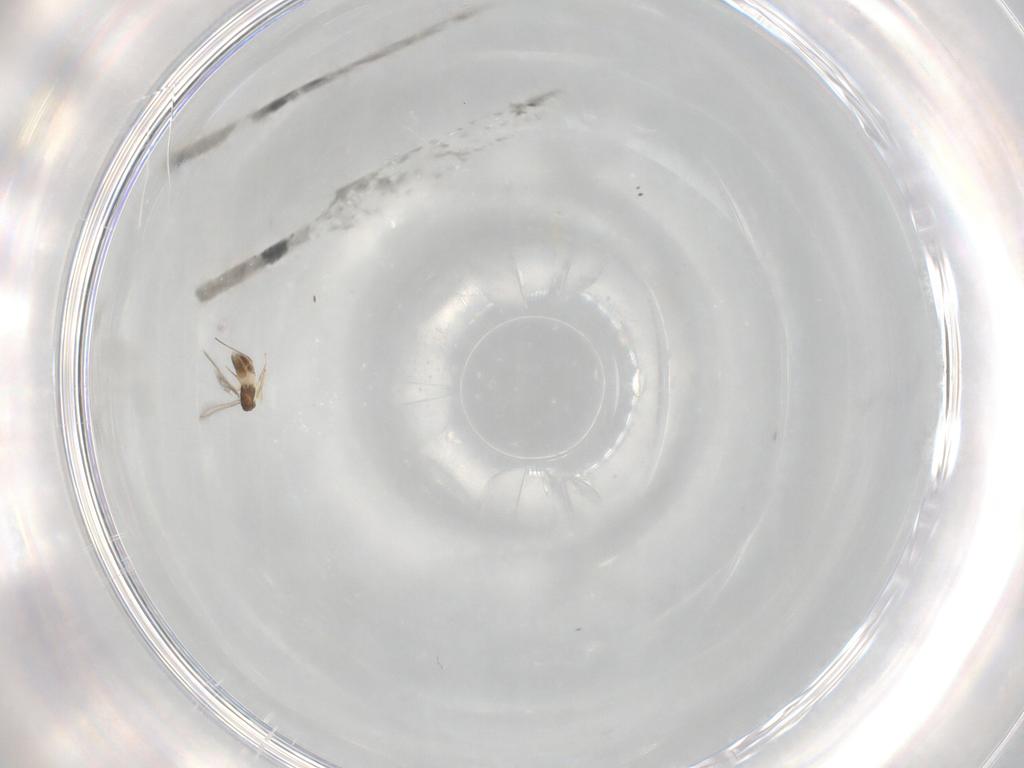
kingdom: Animalia
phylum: Arthropoda
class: Insecta
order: Hymenoptera
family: Mymaridae
